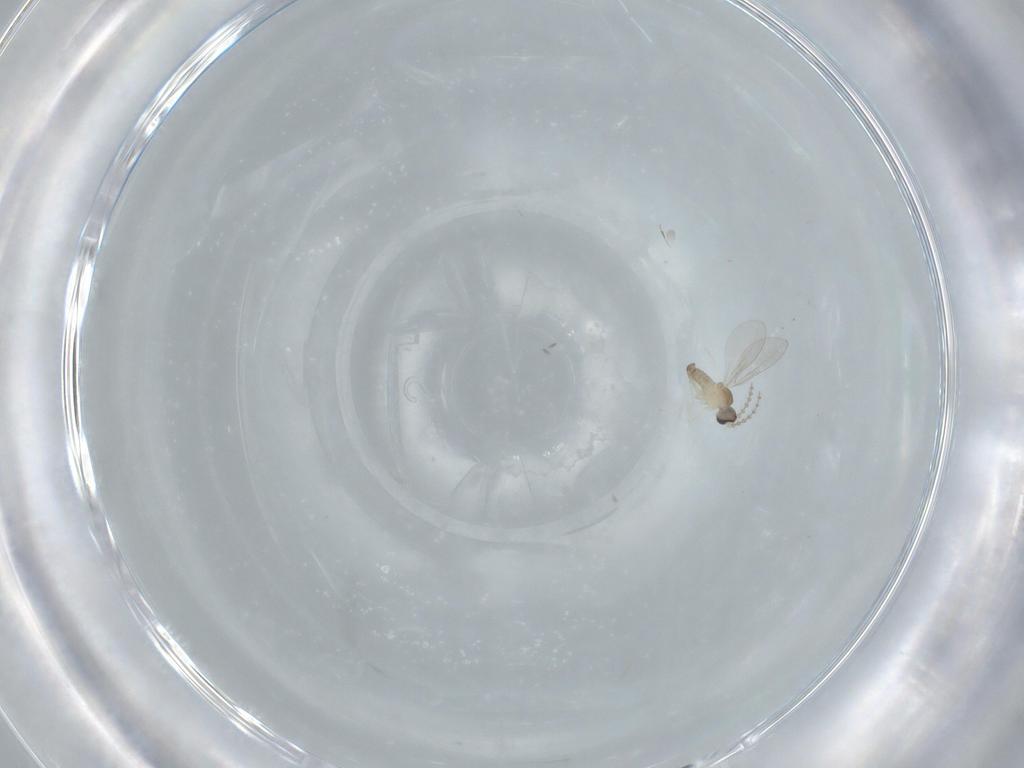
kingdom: Animalia
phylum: Arthropoda
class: Insecta
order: Diptera
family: Cecidomyiidae
